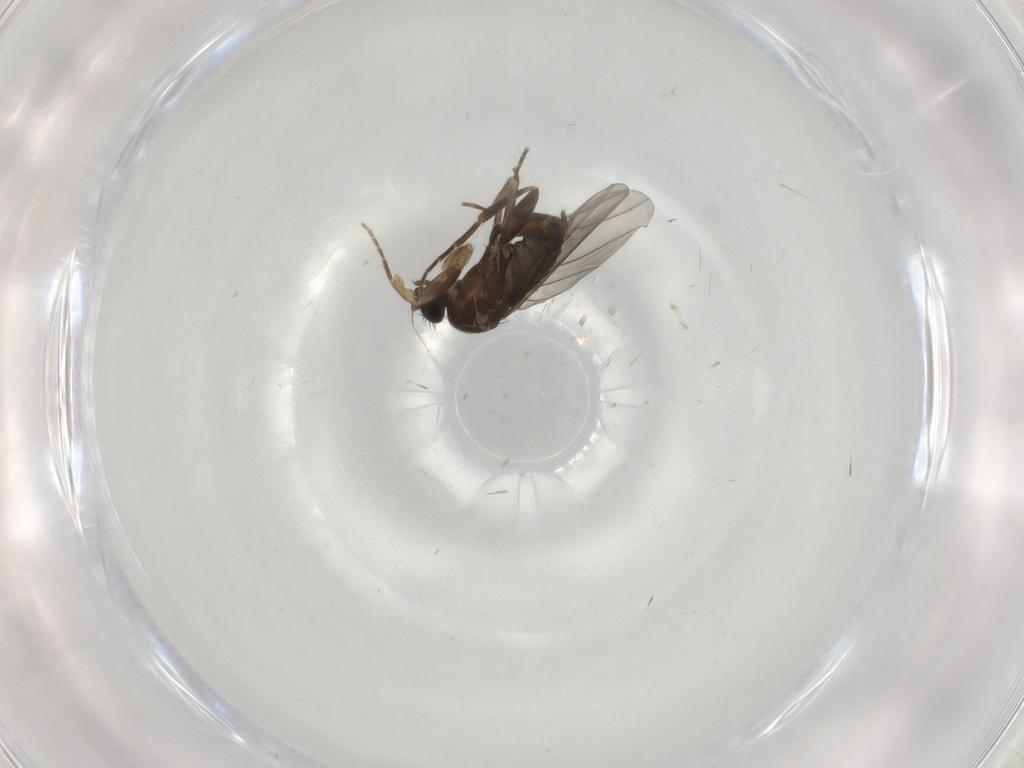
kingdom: Animalia
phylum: Arthropoda
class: Insecta
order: Diptera
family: Phoridae
